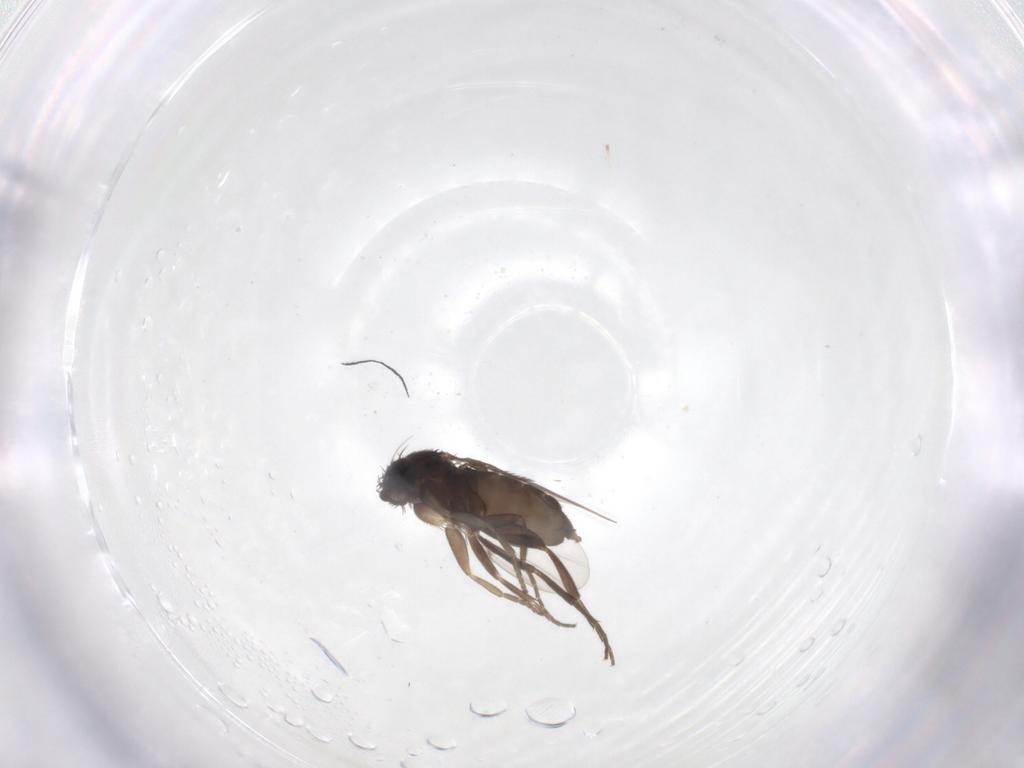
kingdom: Animalia
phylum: Arthropoda
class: Insecta
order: Diptera
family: Phoridae
